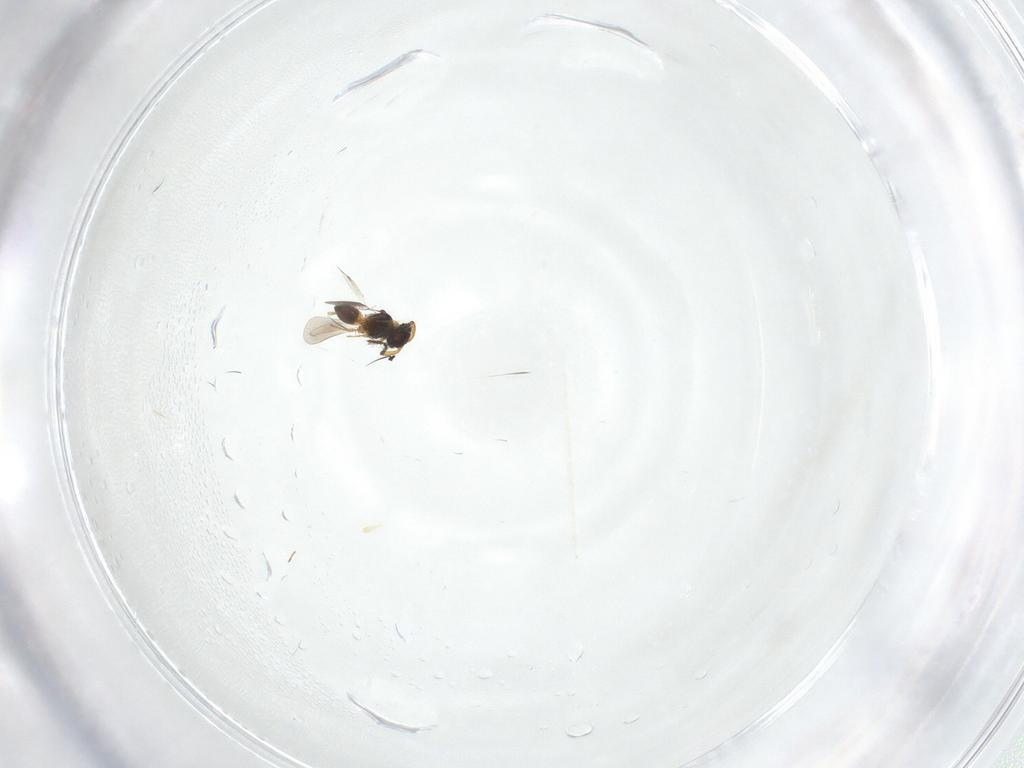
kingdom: Animalia
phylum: Arthropoda
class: Insecta
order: Hymenoptera
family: Platygastridae
